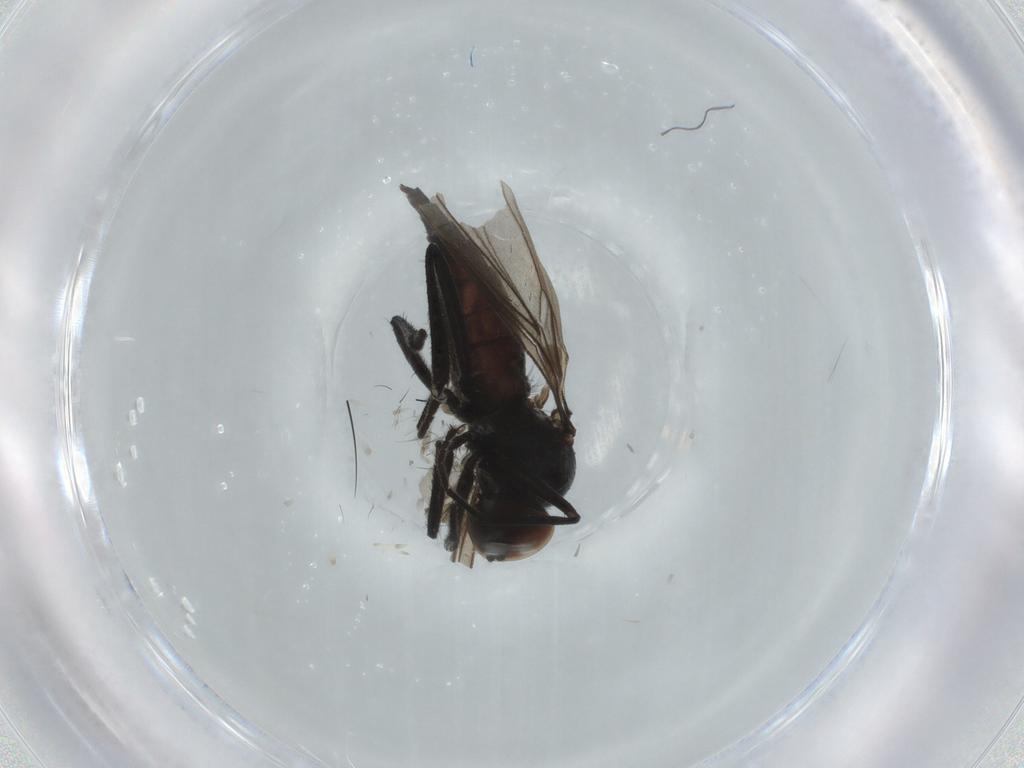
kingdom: Animalia
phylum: Arthropoda
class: Insecta
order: Diptera
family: Hybotidae
